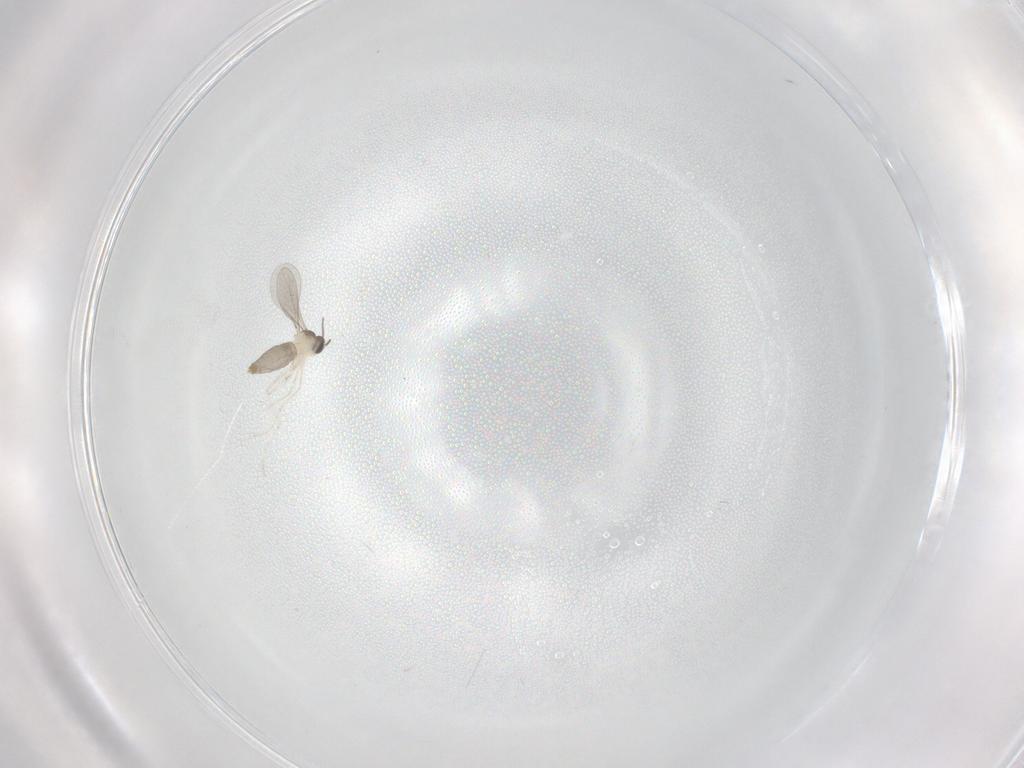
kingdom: Animalia
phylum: Arthropoda
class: Insecta
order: Diptera
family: Cecidomyiidae
